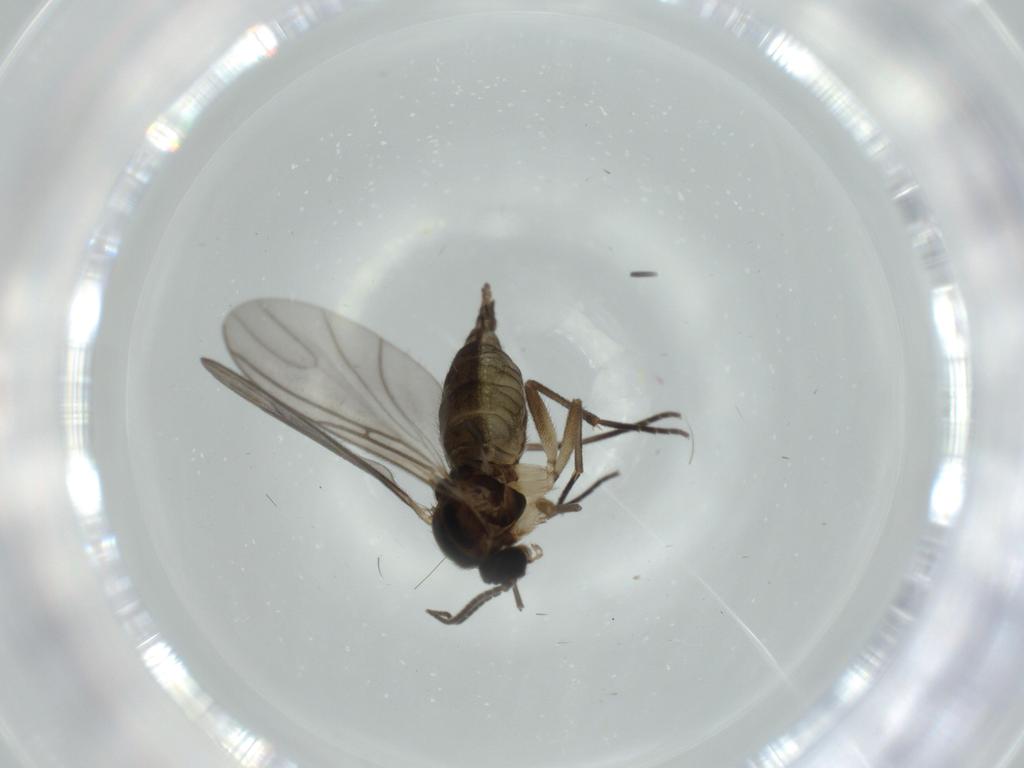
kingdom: Animalia
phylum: Arthropoda
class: Insecta
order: Diptera
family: Sciaridae
